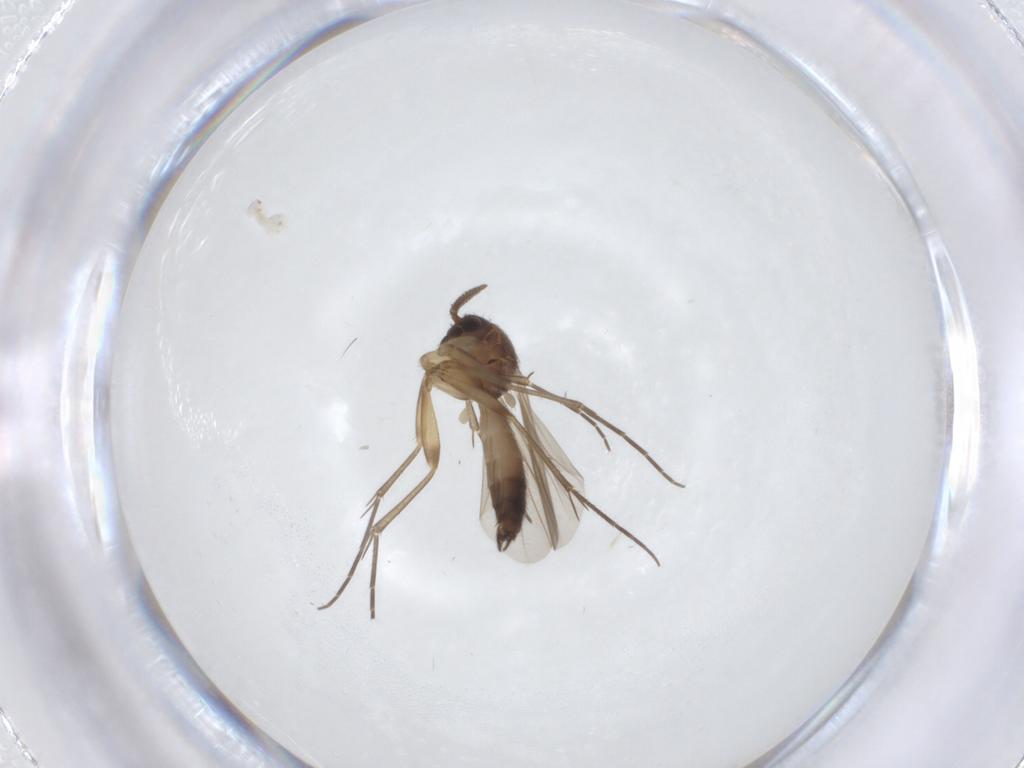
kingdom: Animalia
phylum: Arthropoda
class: Insecta
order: Diptera
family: Mycetophilidae
